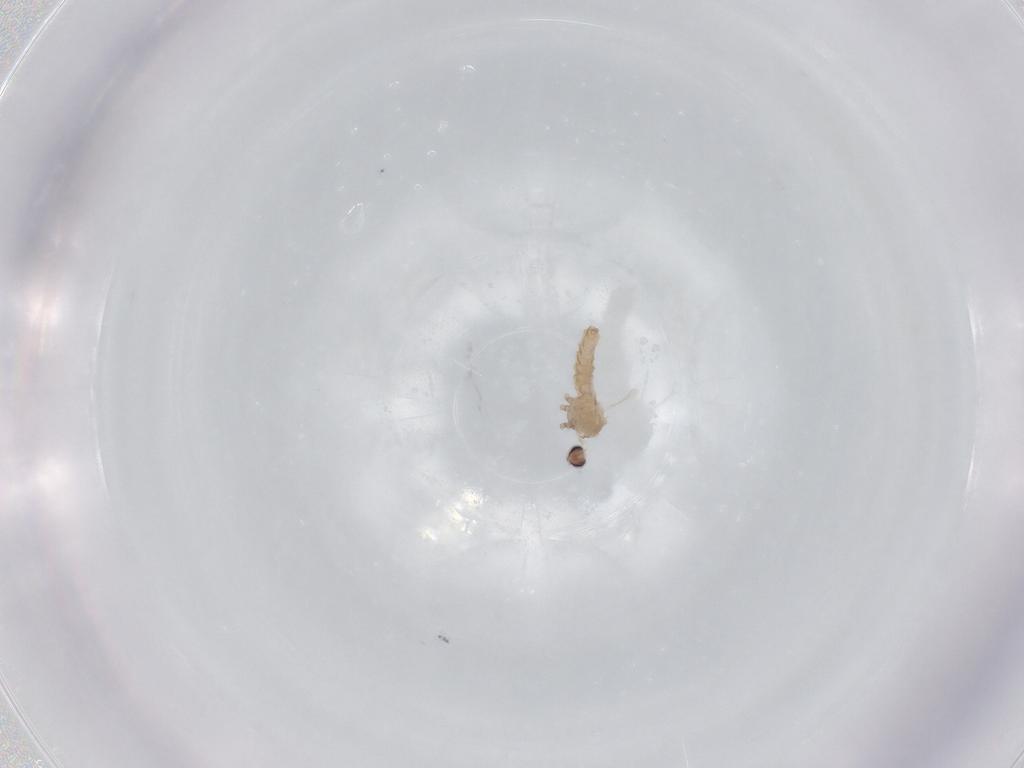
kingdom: Animalia
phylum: Arthropoda
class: Insecta
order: Diptera
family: Cecidomyiidae
